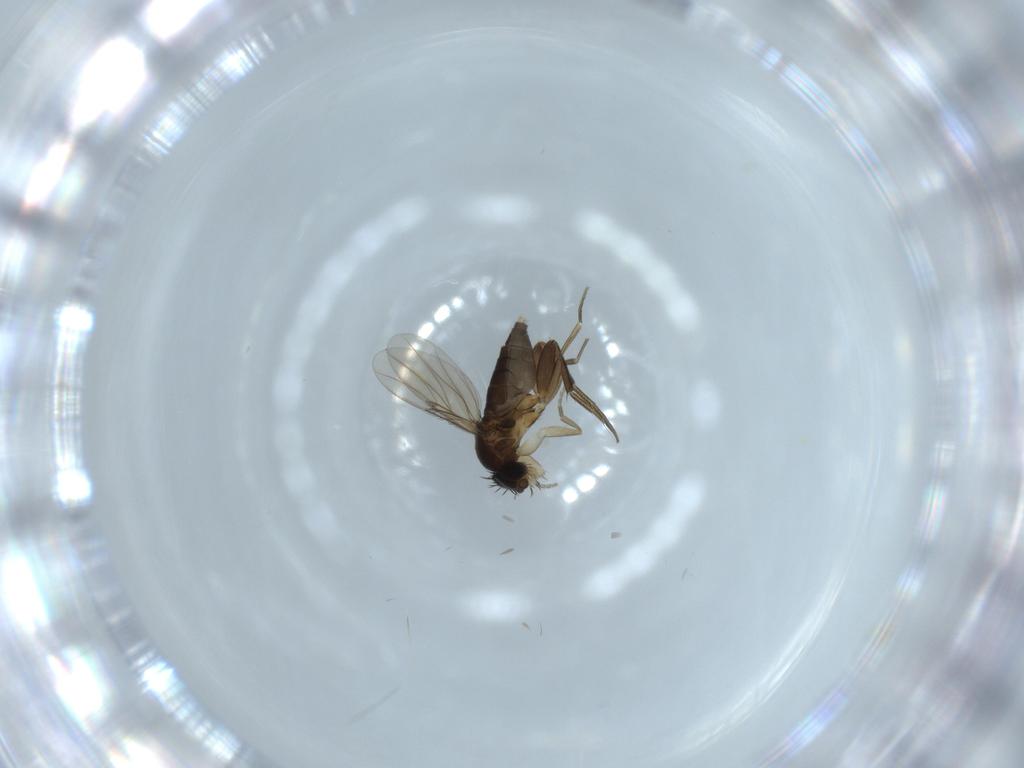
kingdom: Animalia
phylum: Arthropoda
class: Insecta
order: Diptera
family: Phoridae
